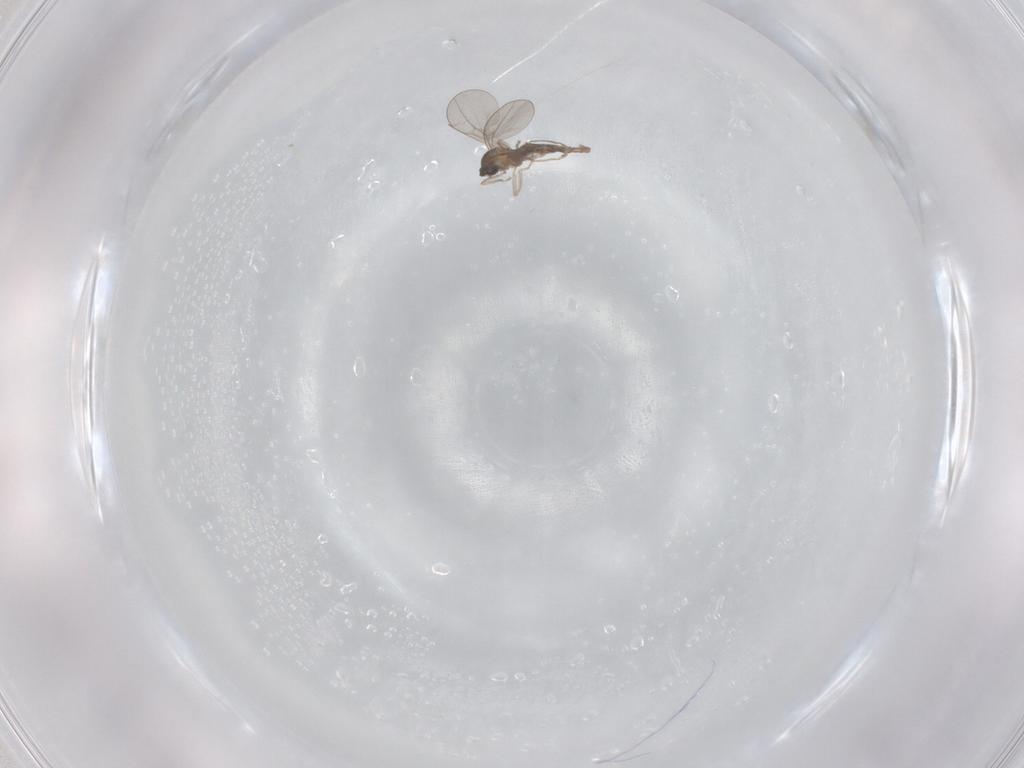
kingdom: Animalia
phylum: Arthropoda
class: Insecta
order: Diptera
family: Cecidomyiidae
